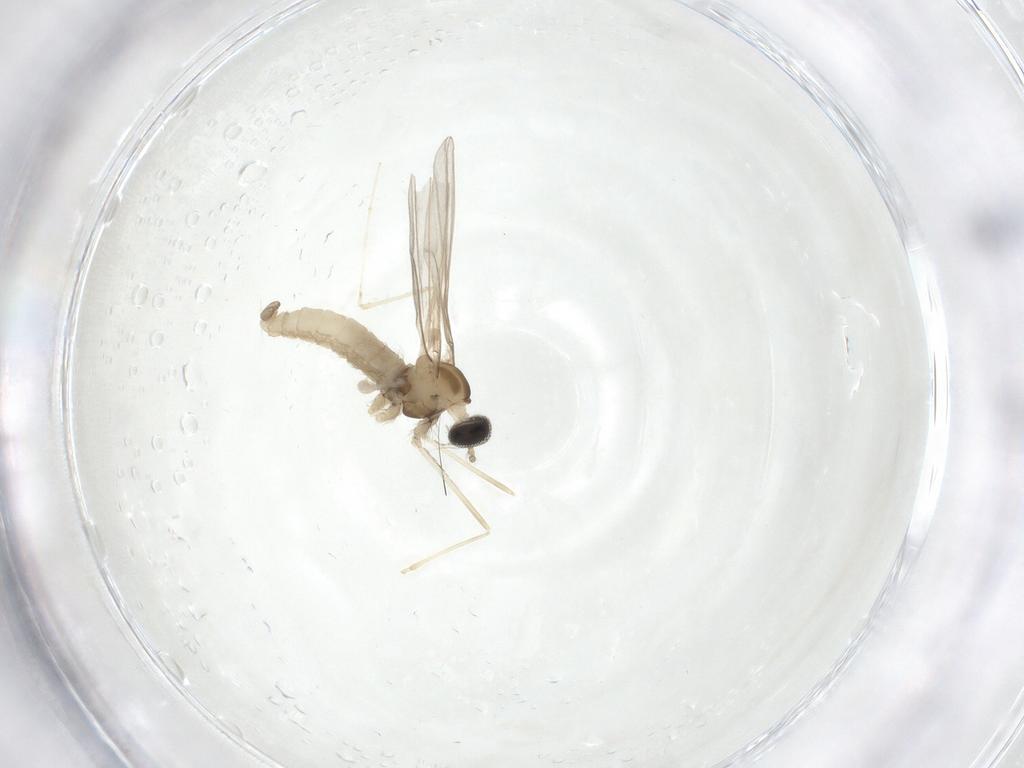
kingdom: Animalia
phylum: Arthropoda
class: Insecta
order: Diptera
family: Cecidomyiidae
